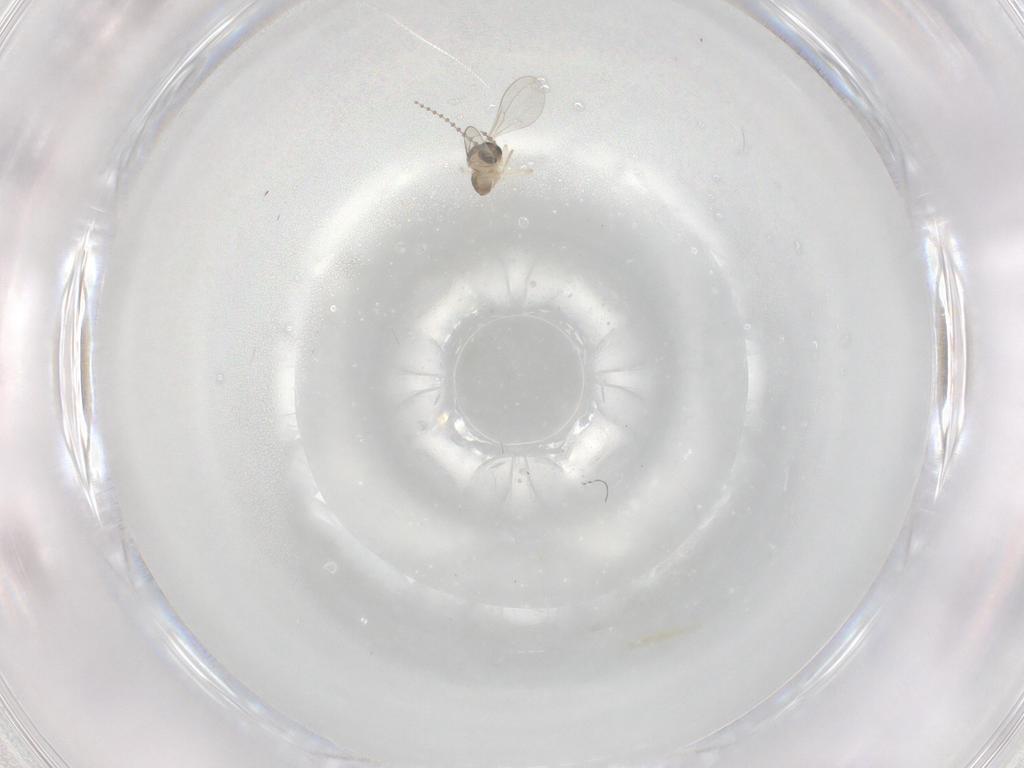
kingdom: Animalia
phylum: Arthropoda
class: Insecta
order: Diptera
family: Cecidomyiidae
